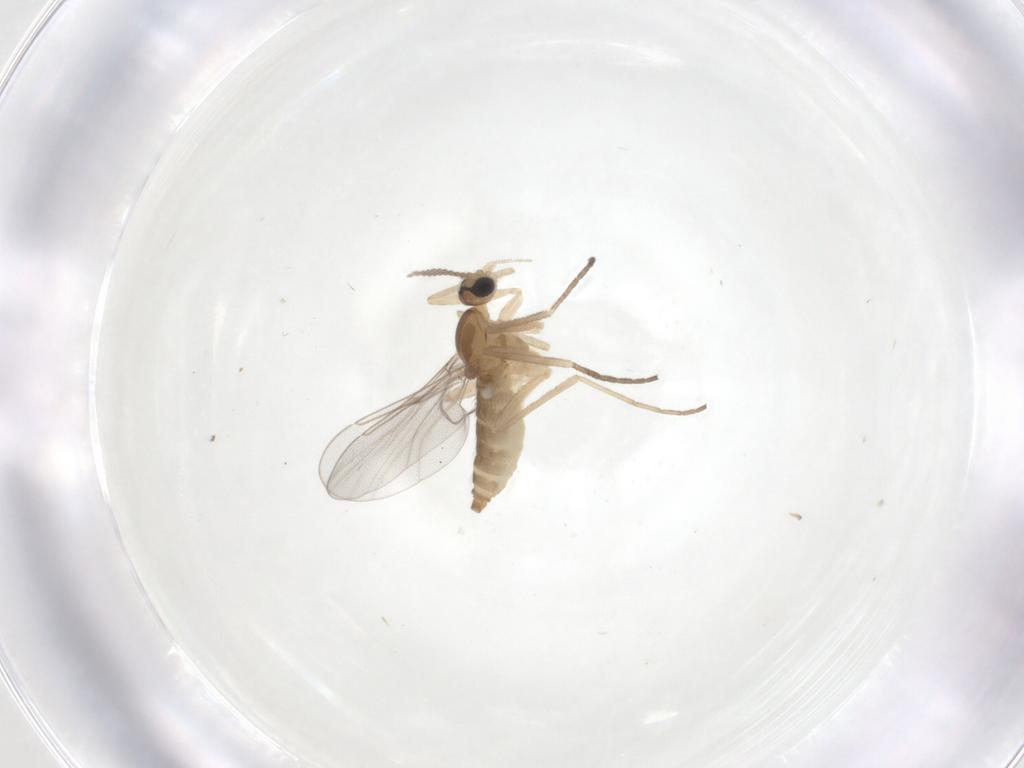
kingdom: Animalia
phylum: Arthropoda
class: Insecta
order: Diptera
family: Cecidomyiidae
